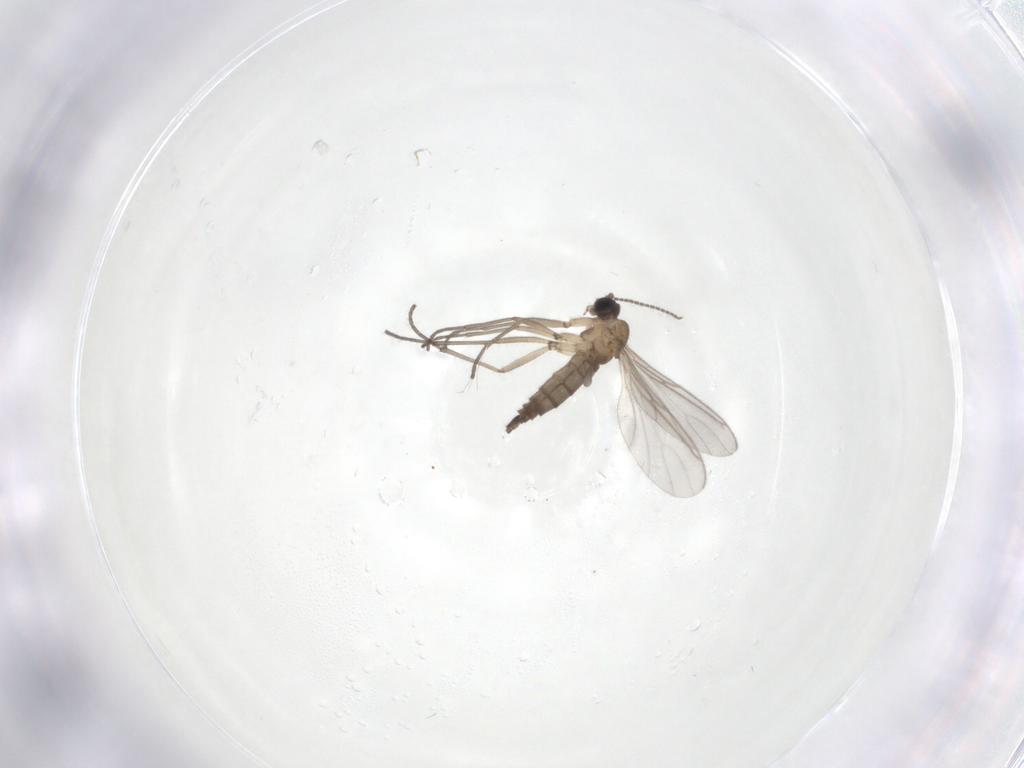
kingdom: Animalia
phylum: Arthropoda
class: Insecta
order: Diptera
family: Sciaridae
